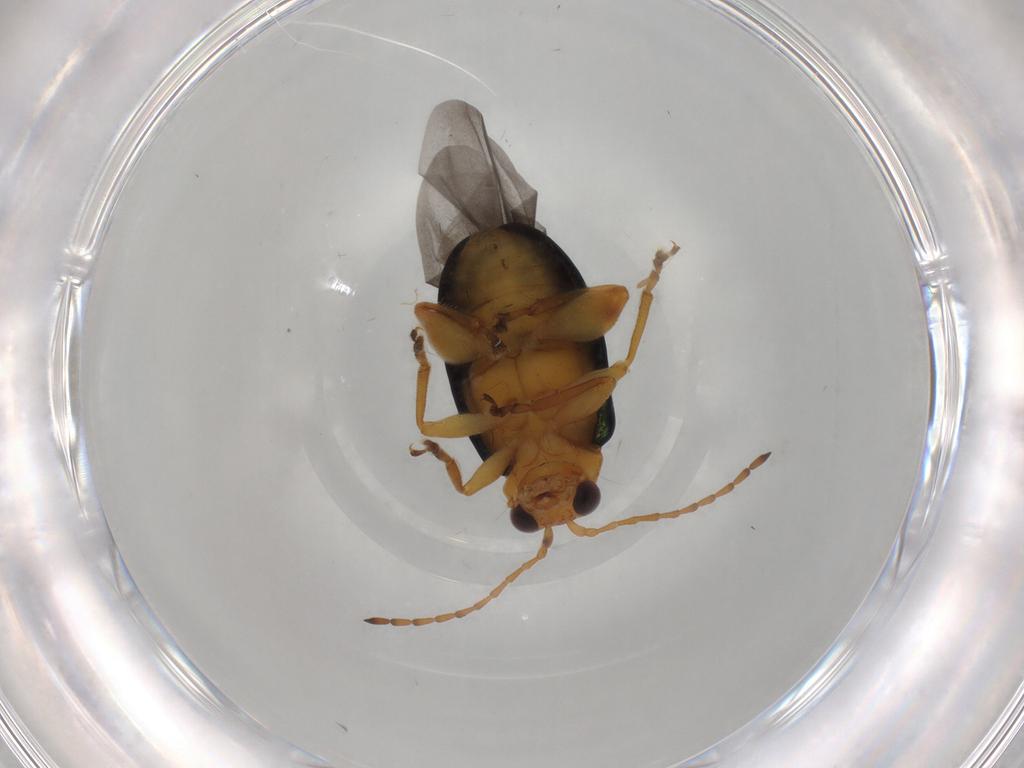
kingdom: Animalia
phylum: Arthropoda
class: Insecta
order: Coleoptera
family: Chrysomelidae
